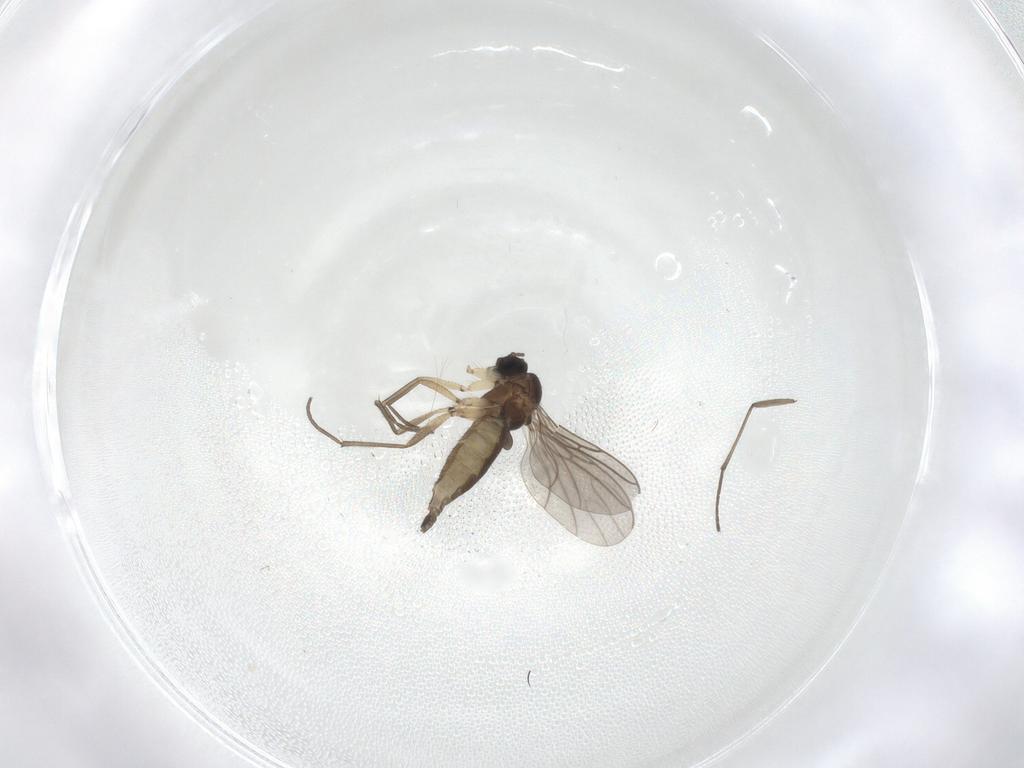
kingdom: Animalia
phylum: Arthropoda
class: Insecta
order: Diptera
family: Sciaridae
